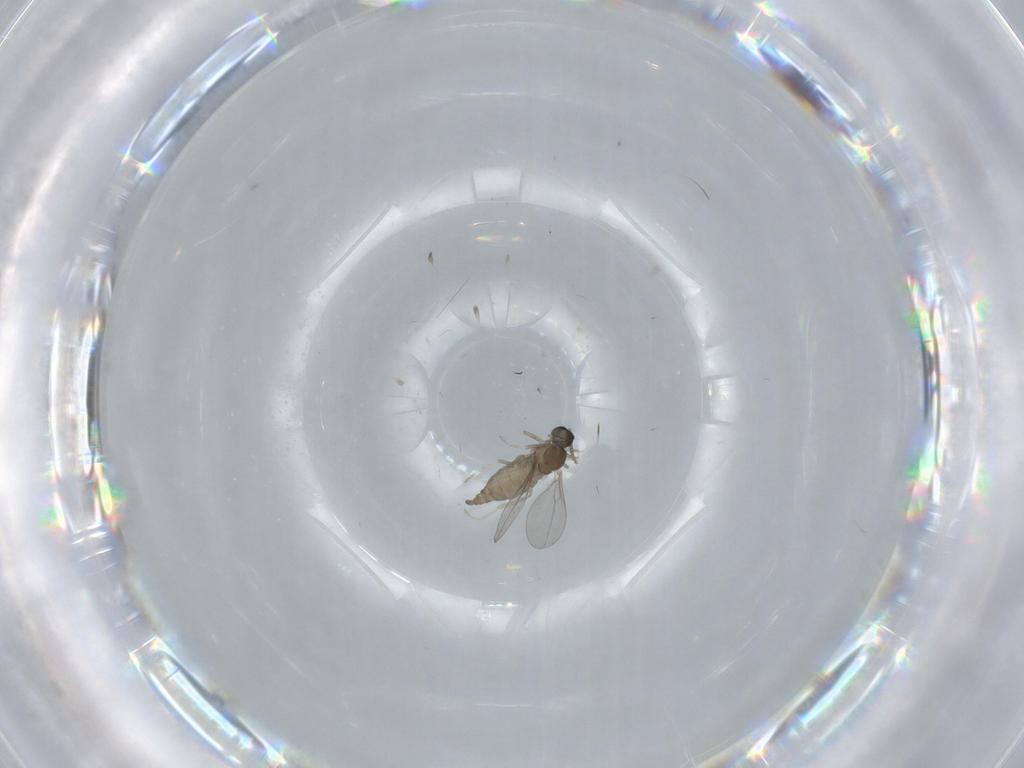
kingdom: Animalia
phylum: Arthropoda
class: Insecta
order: Diptera
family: Cecidomyiidae
